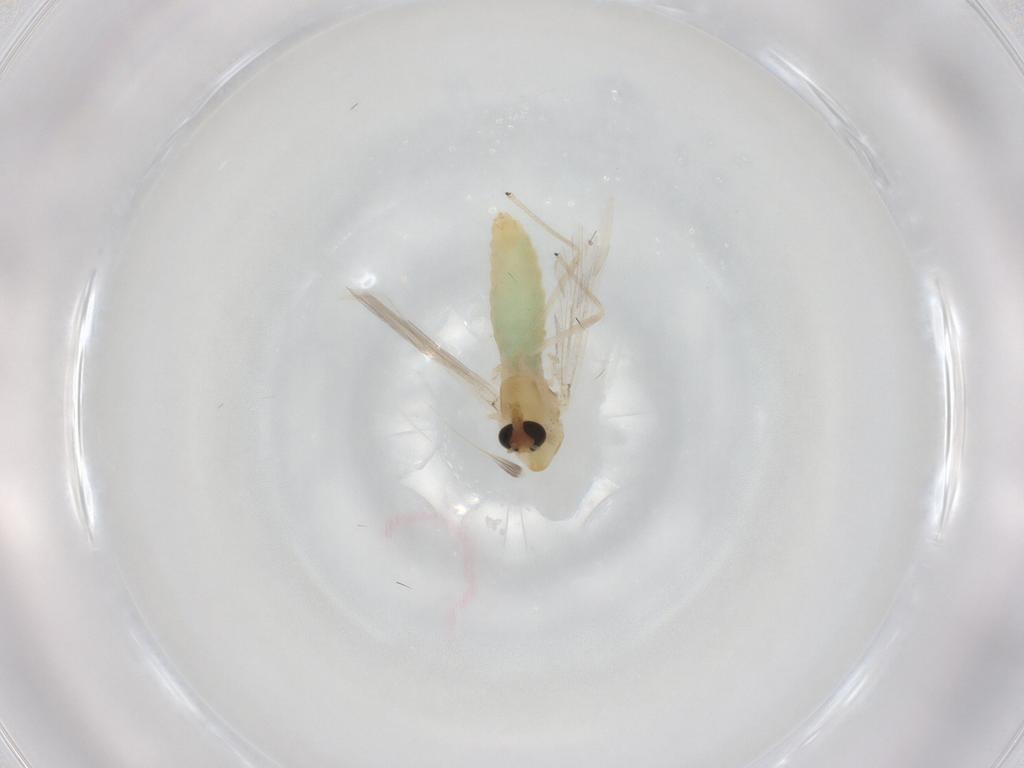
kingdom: Animalia
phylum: Arthropoda
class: Insecta
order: Diptera
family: Chironomidae
